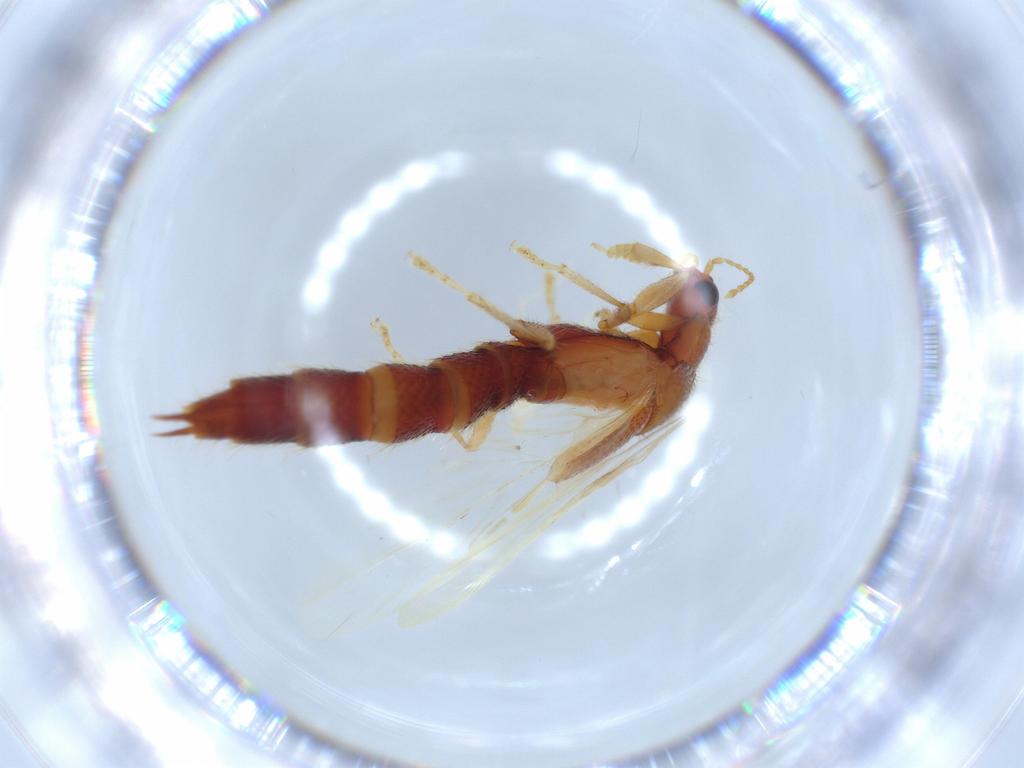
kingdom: Animalia
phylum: Arthropoda
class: Insecta
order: Coleoptera
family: Staphylinidae
